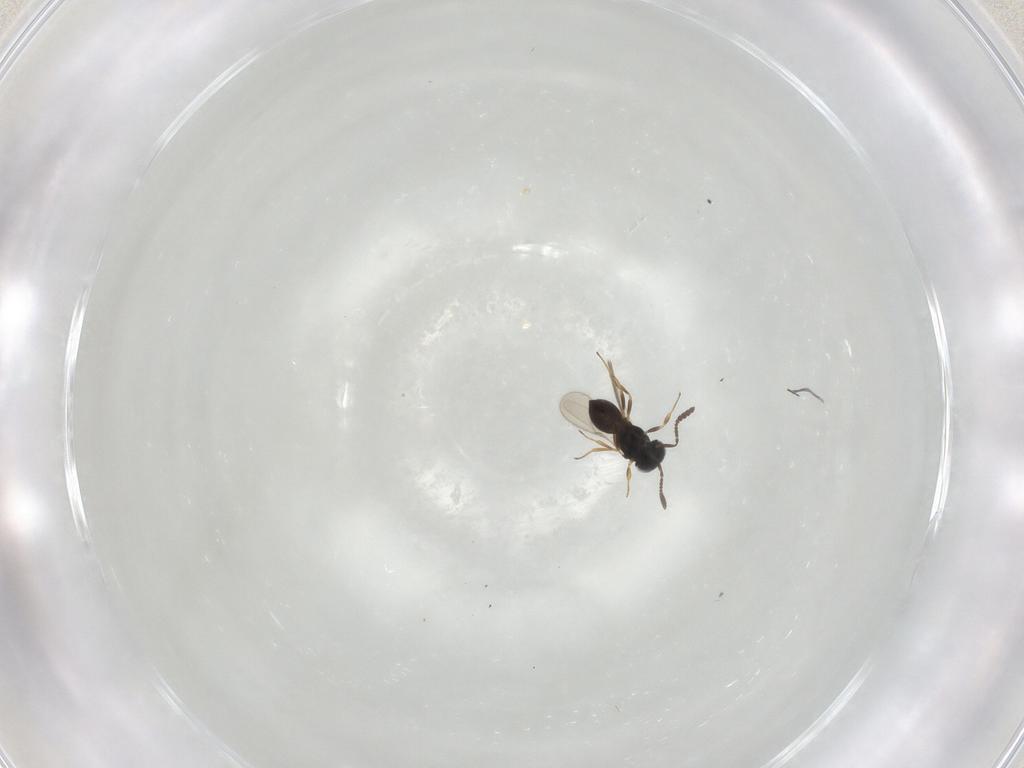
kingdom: Animalia
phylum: Arthropoda
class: Insecta
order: Hymenoptera
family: Scelionidae
